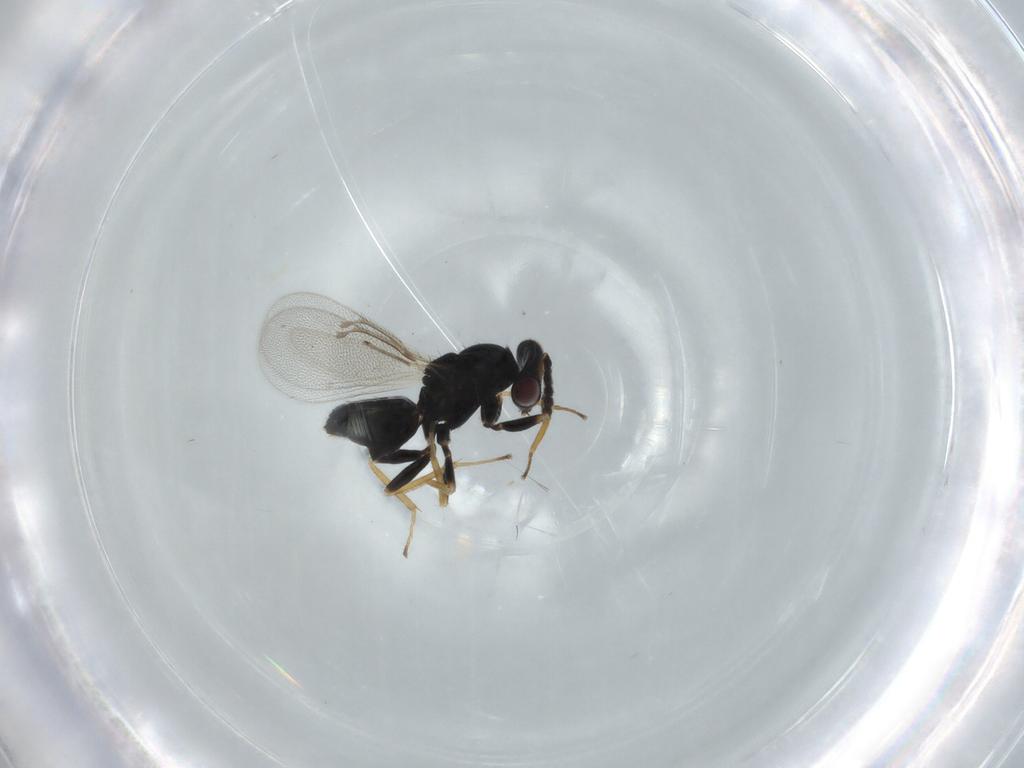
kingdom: Animalia
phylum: Arthropoda
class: Insecta
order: Hymenoptera
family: Eulophidae
